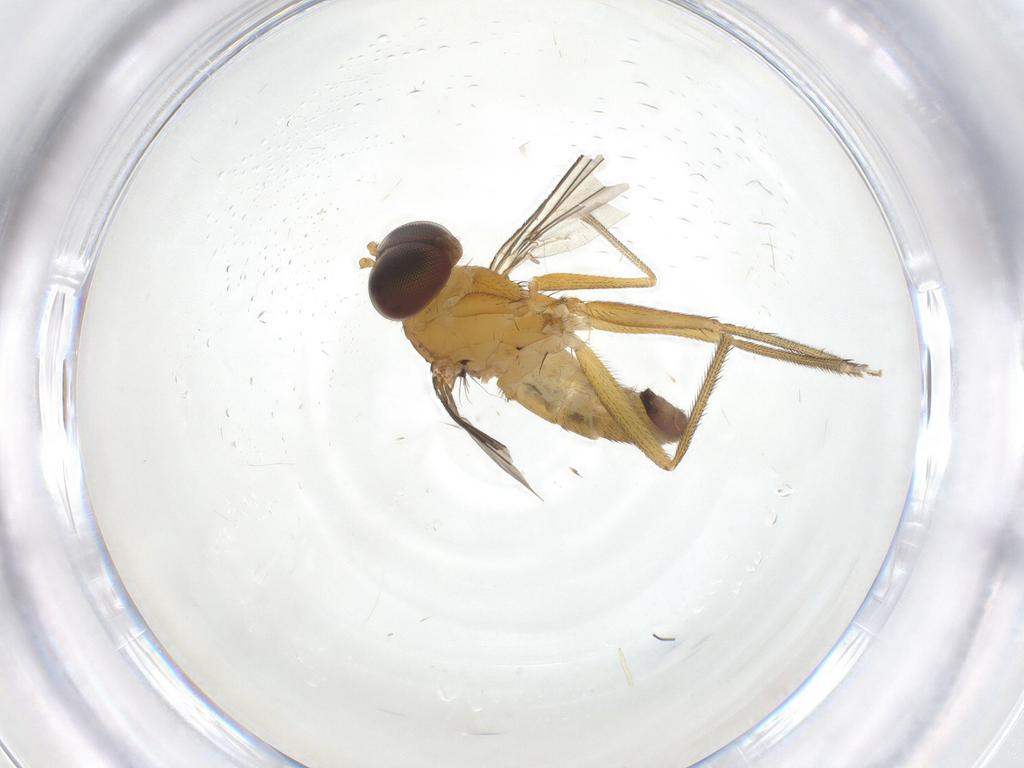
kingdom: Animalia
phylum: Arthropoda
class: Insecta
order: Diptera
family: Dolichopodidae
